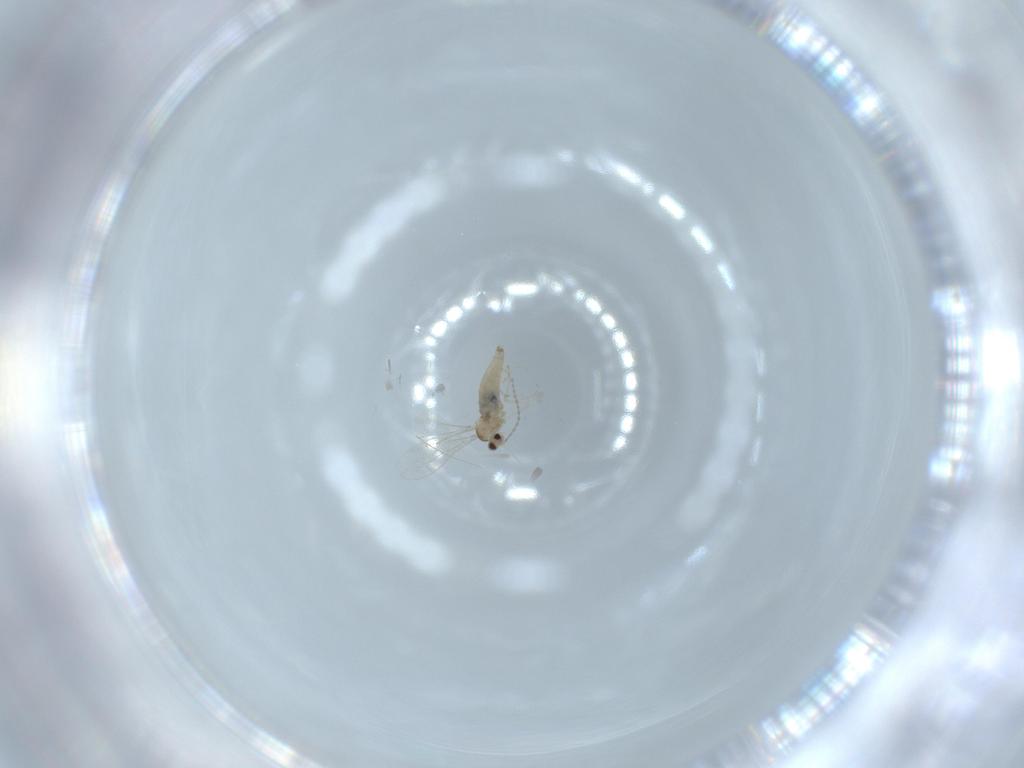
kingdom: Animalia
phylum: Arthropoda
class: Insecta
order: Diptera
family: Cecidomyiidae
